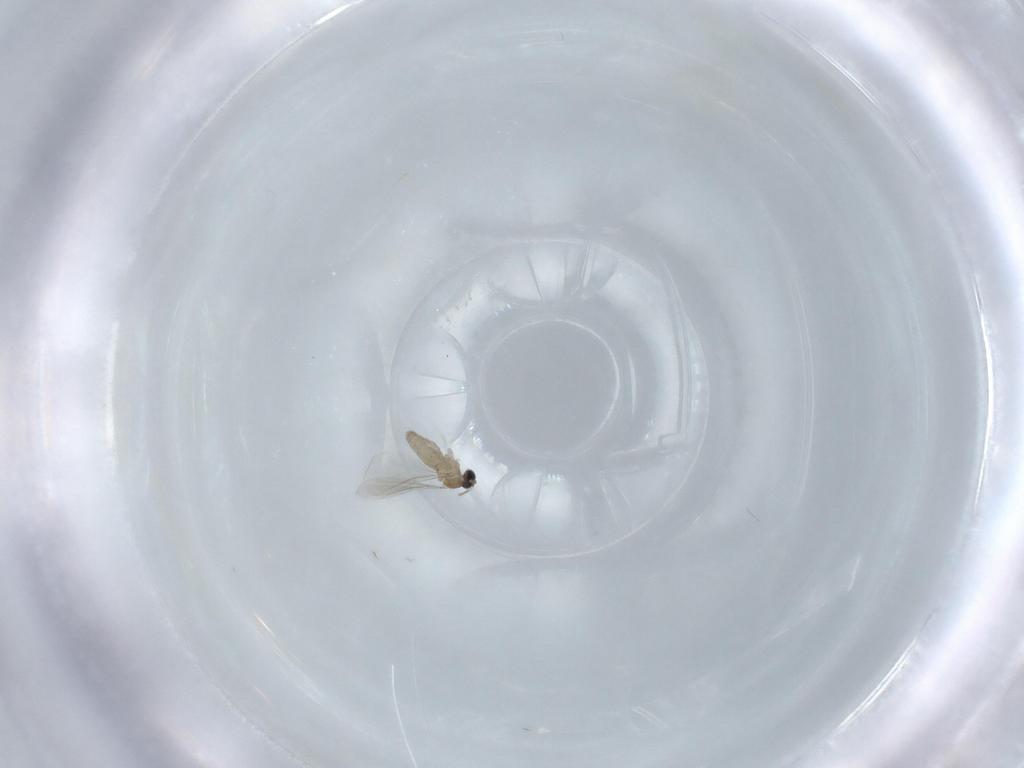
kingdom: Animalia
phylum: Arthropoda
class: Insecta
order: Diptera
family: Cecidomyiidae
